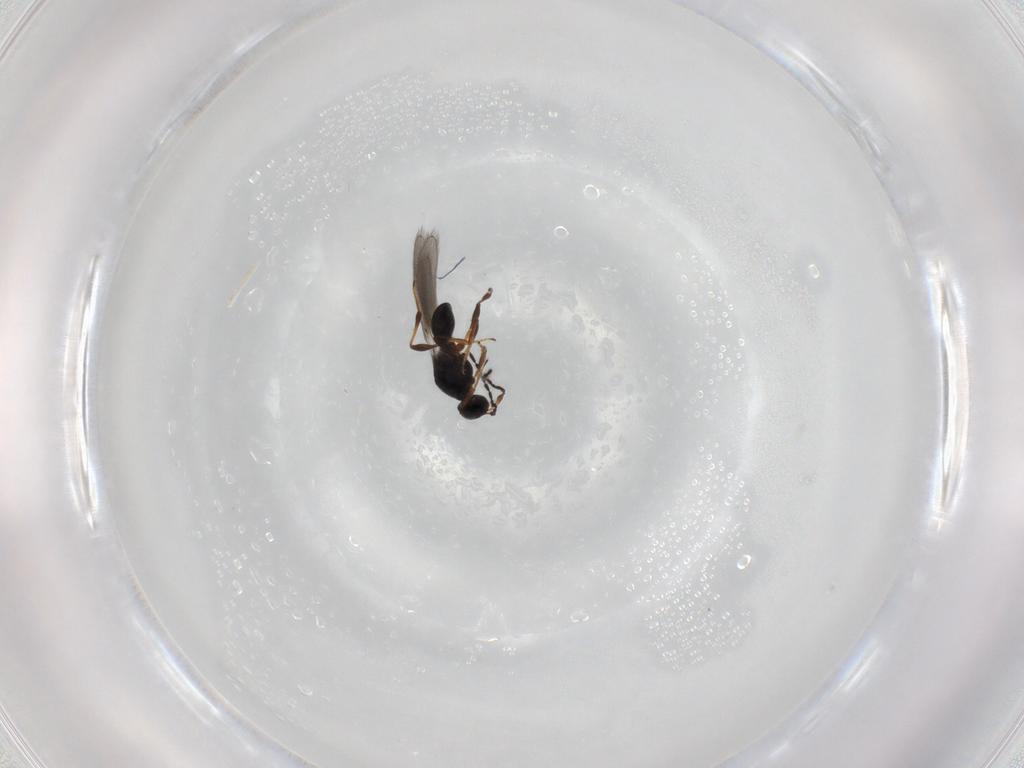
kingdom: Animalia
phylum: Arthropoda
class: Insecta
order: Hymenoptera
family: Platygastridae
